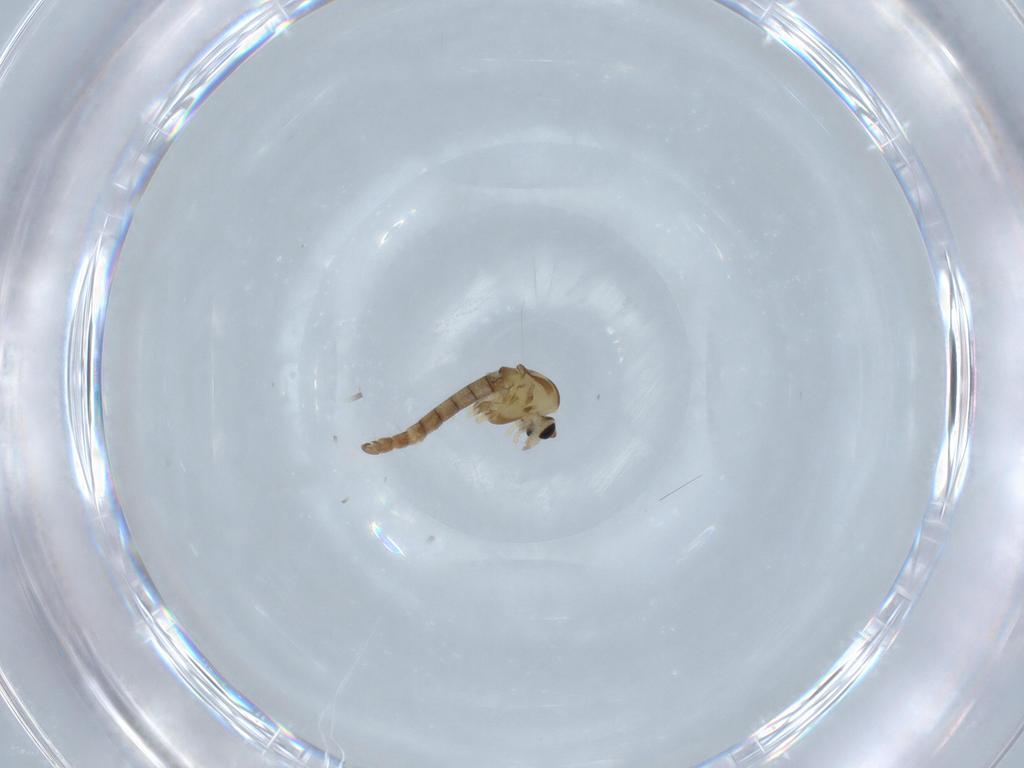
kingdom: Animalia
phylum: Arthropoda
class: Insecta
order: Diptera
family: Chironomidae
